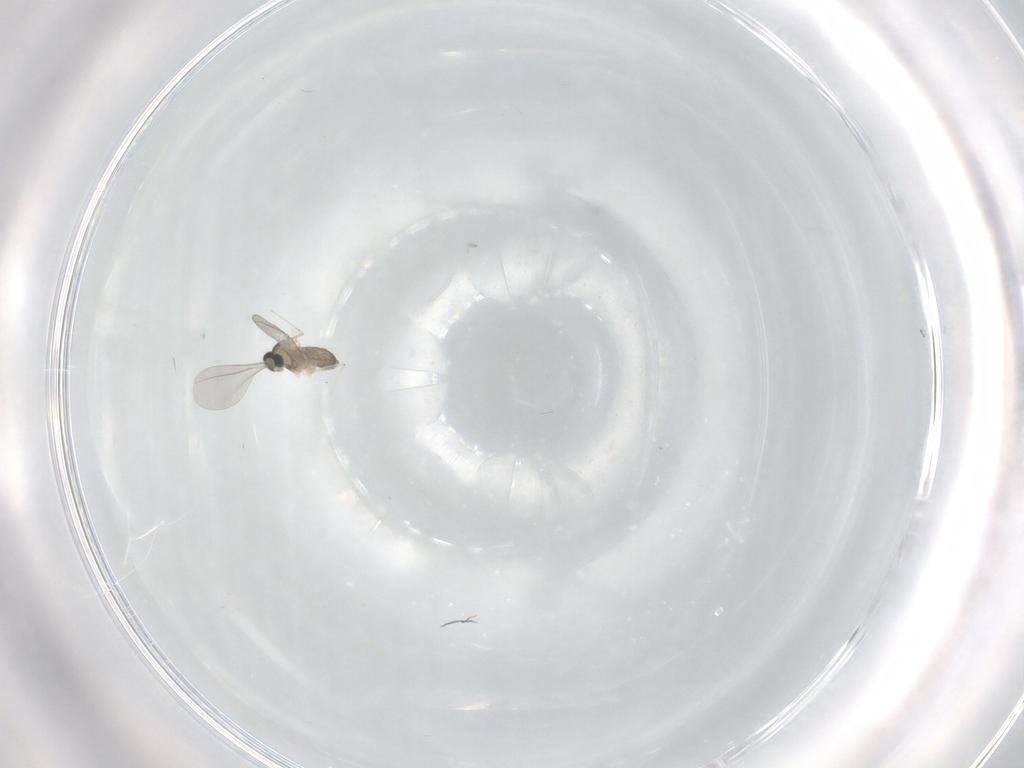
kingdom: Animalia
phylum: Arthropoda
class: Insecta
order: Diptera
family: Cecidomyiidae
